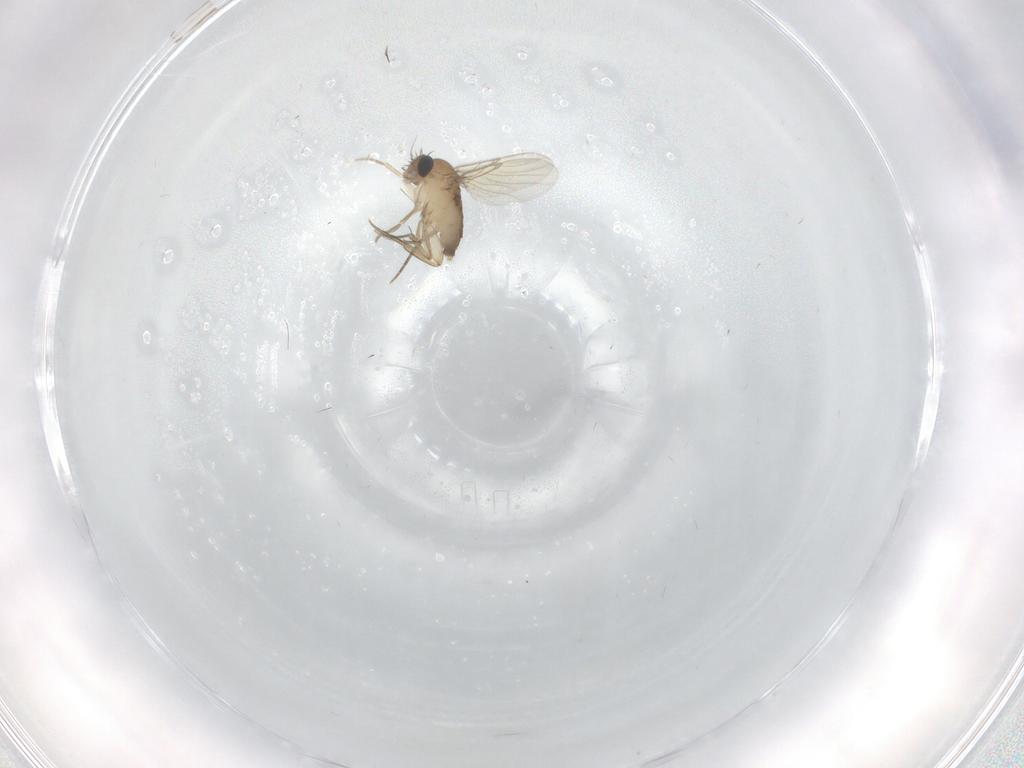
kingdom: Animalia
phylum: Arthropoda
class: Insecta
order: Diptera
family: Phoridae
